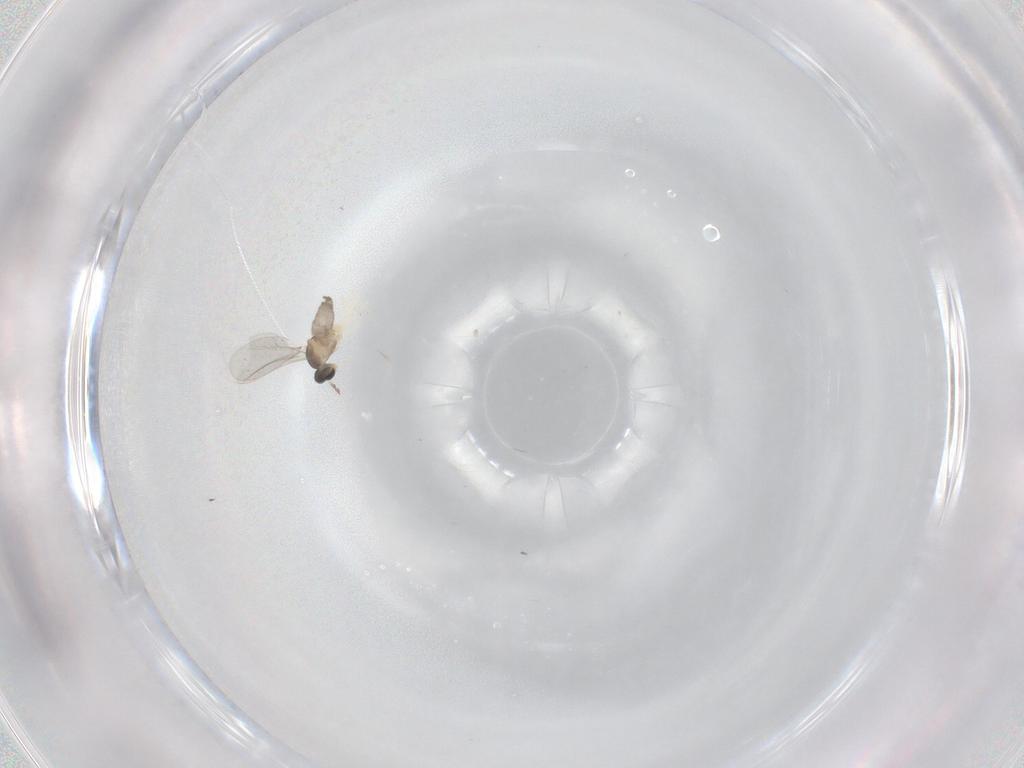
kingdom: Animalia
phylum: Arthropoda
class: Insecta
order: Diptera
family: Cecidomyiidae
